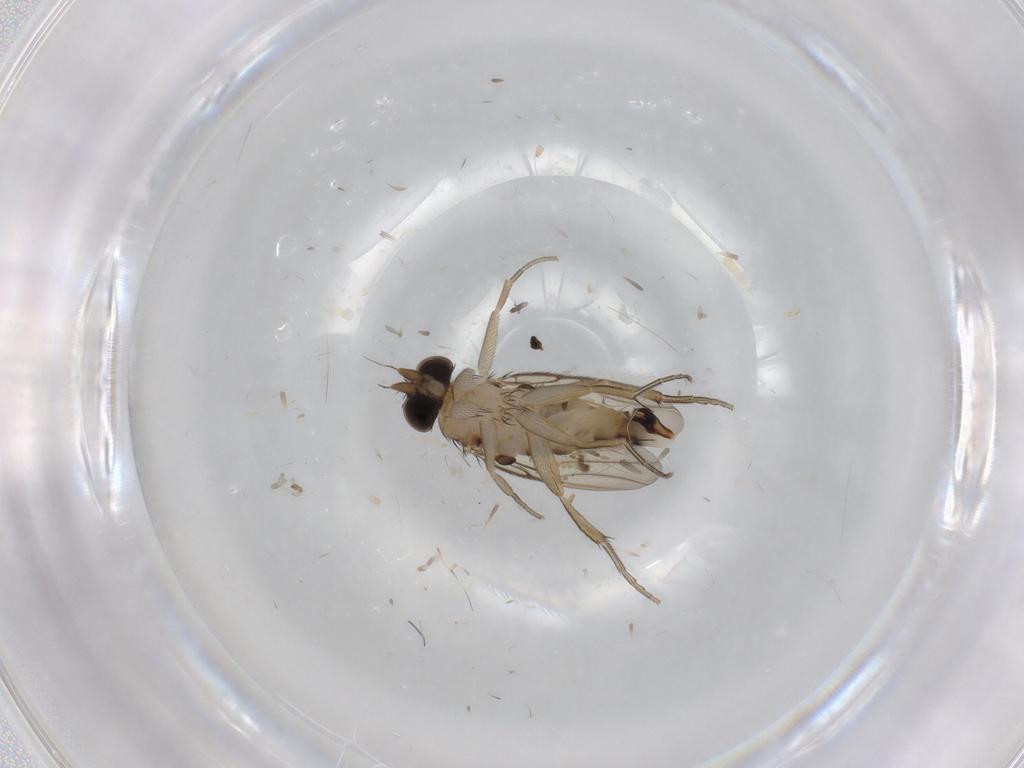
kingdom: Animalia
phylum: Arthropoda
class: Insecta
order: Diptera
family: Phoridae
